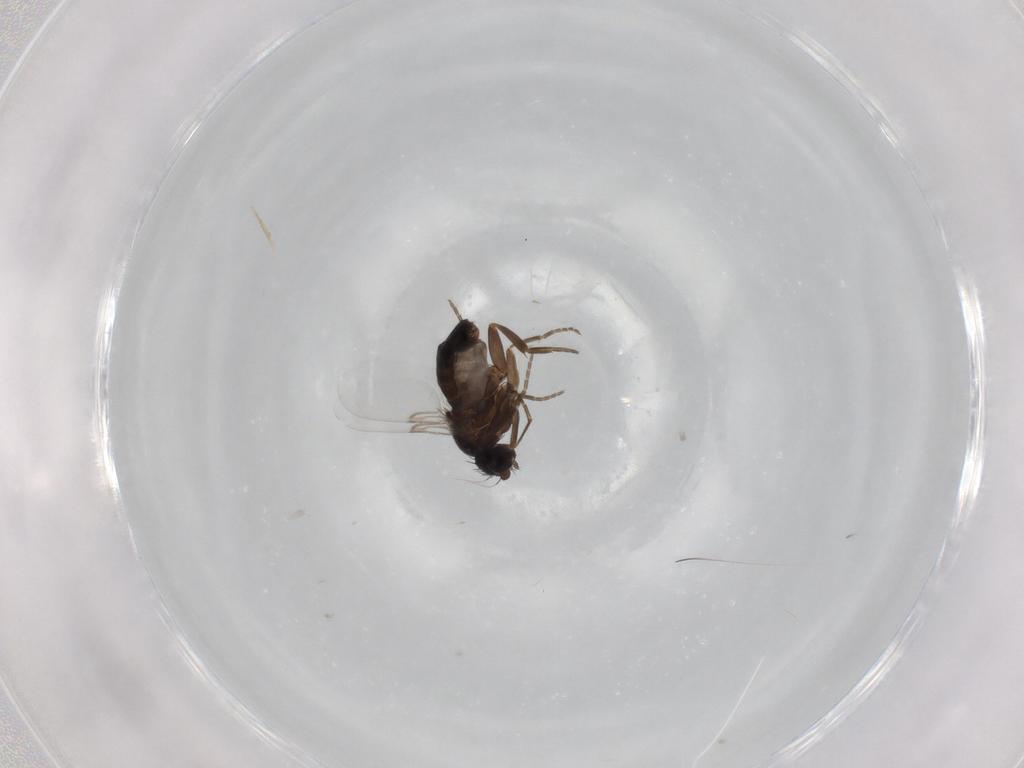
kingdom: Animalia
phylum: Arthropoda
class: Insecta
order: Diptera
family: Phoridae
